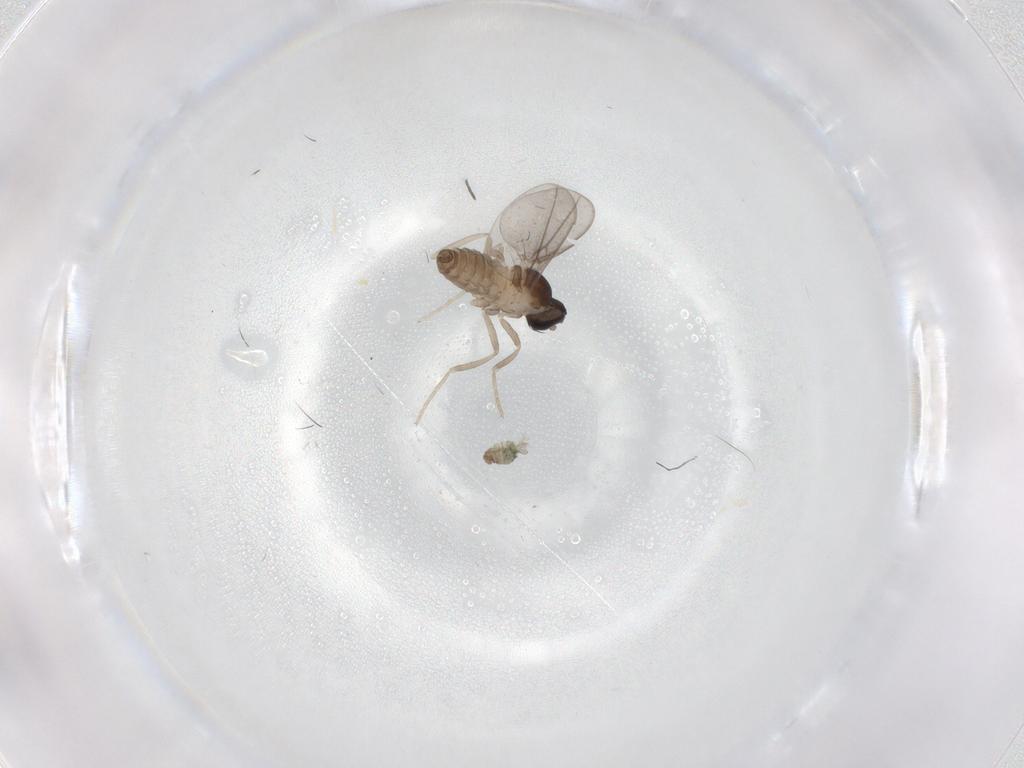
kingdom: Animalia
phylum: Arthropoda
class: Insecta
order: Diptera
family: Cecidomyiidae
